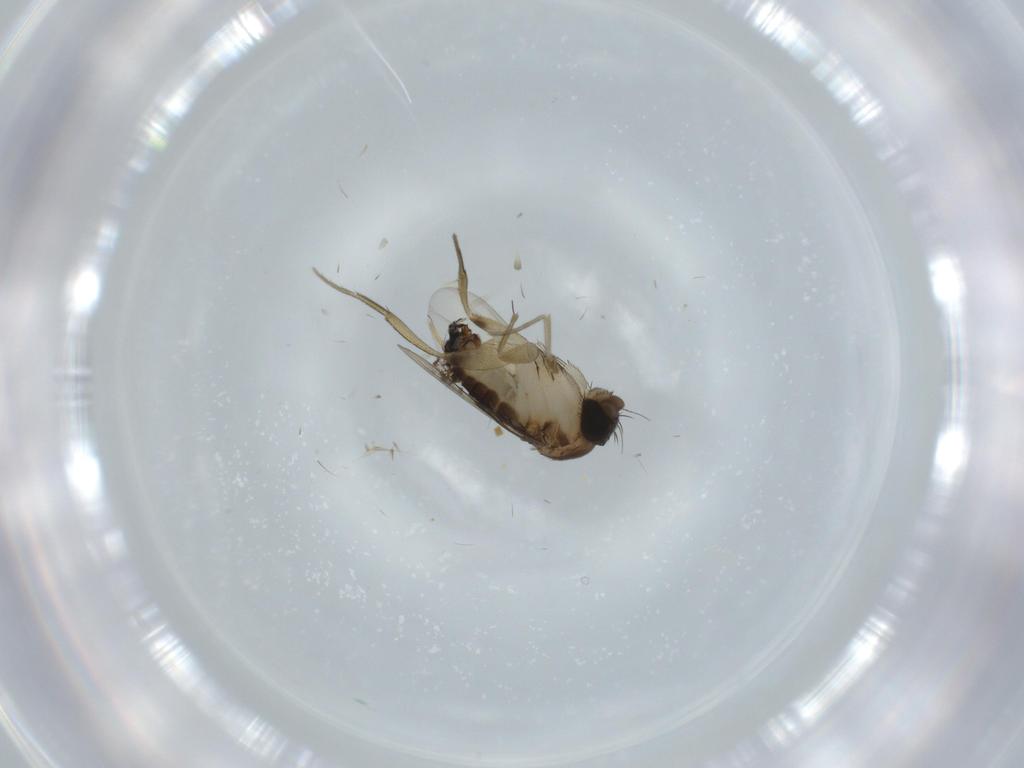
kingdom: Animalia
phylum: Arthropoda
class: Insecta
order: Diptera
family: Phoridae
